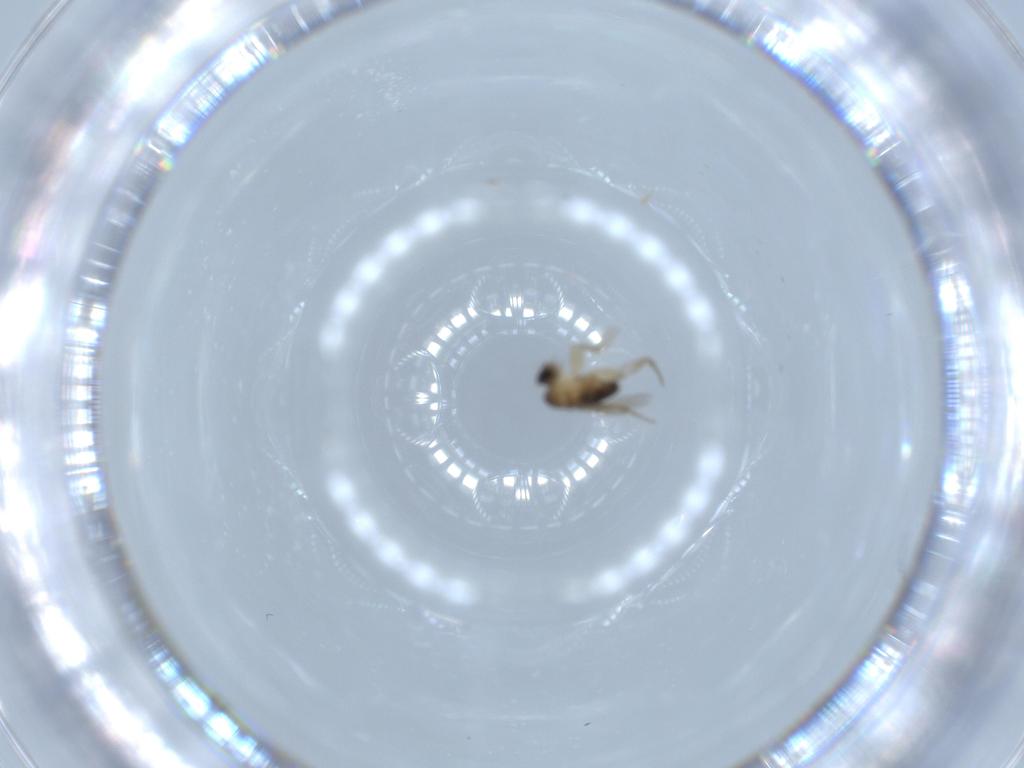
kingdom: Animalia
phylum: Arthropoda
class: Insecta
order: Diptera
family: Phoridae
